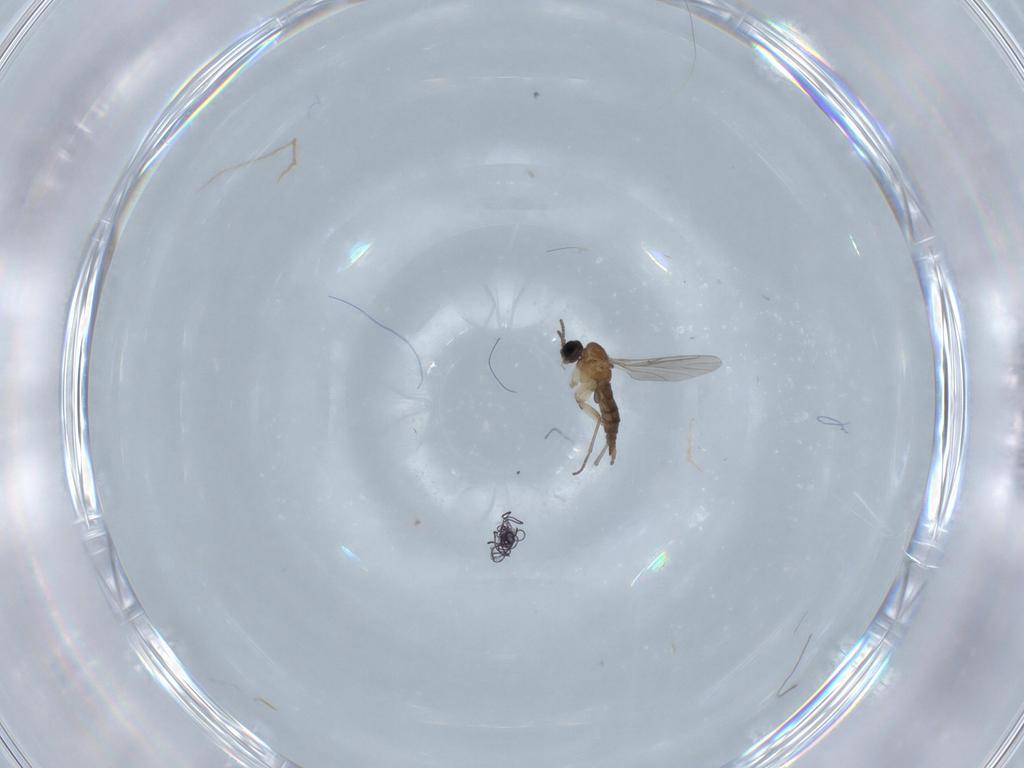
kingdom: Animalia
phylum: Arthropoda
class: Insecta
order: Diptera
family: Sciaridae
